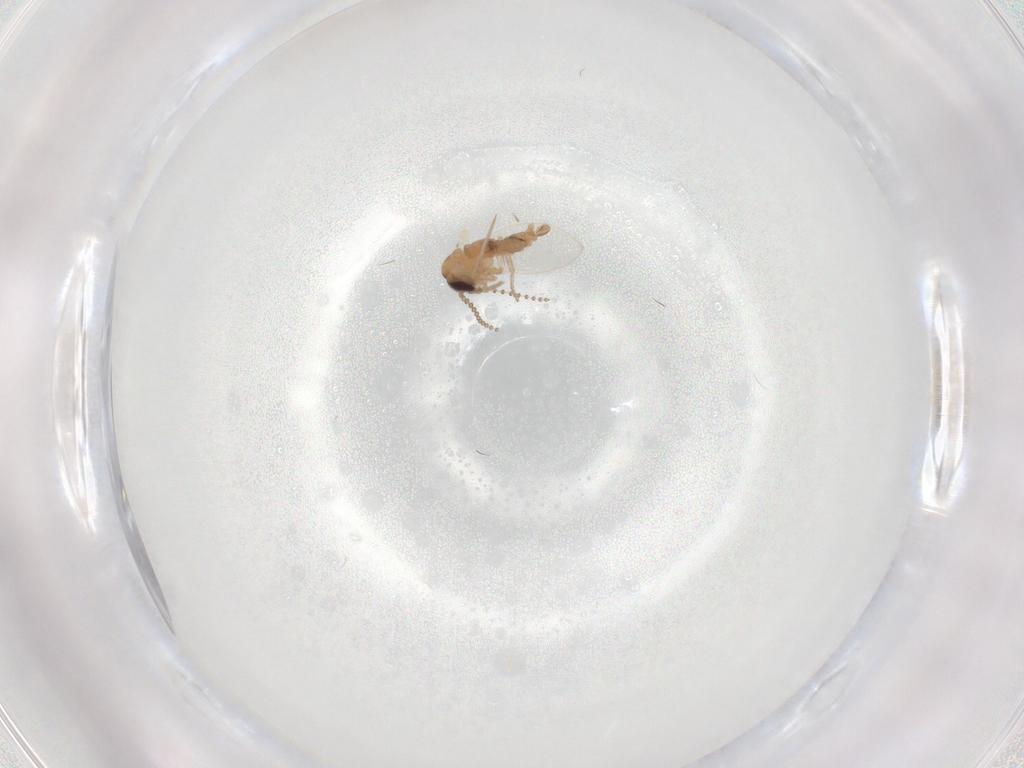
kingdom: Animalia
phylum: Arthropoda
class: Insecta
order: Diptera
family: Psychodidae
